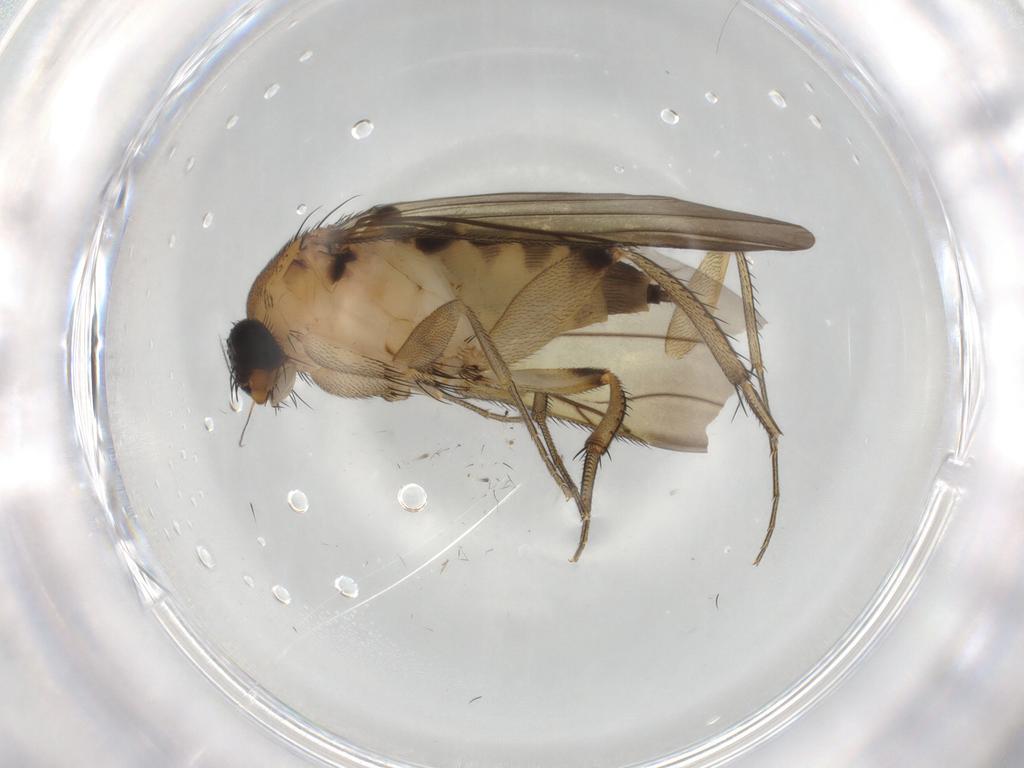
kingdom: Animalia
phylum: Arthropoda
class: Insecta
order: Diptera
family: Phoridae
